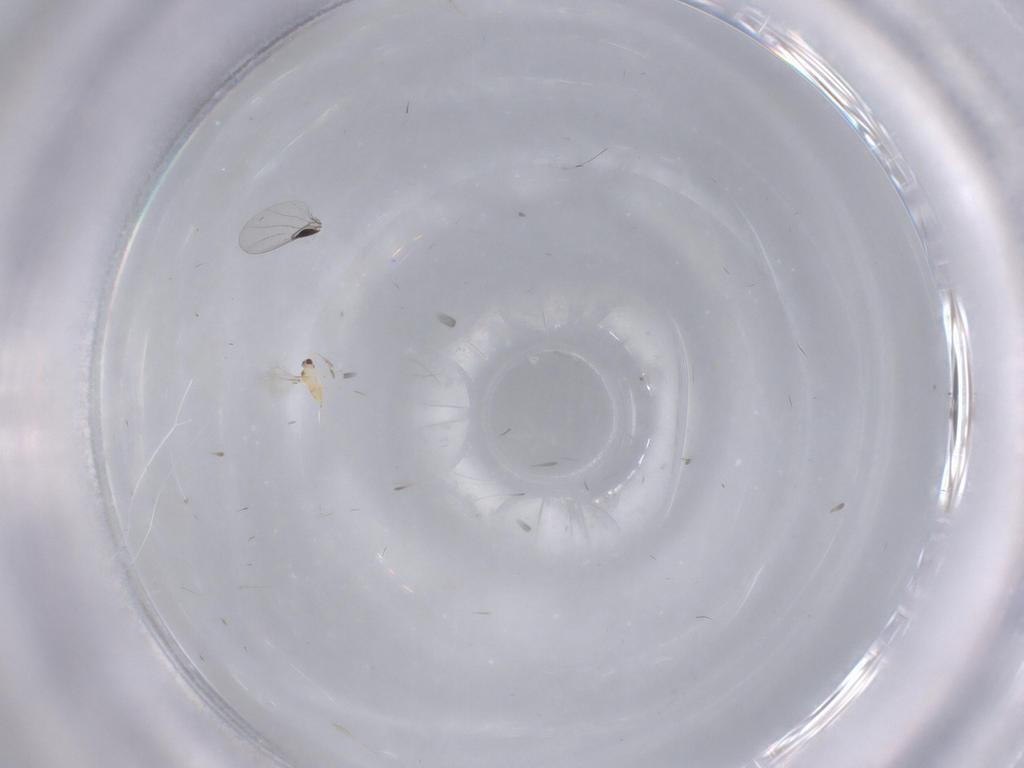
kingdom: Animalia
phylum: Arthropoda
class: Insecta
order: Hymenoptera
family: Mymaridae
